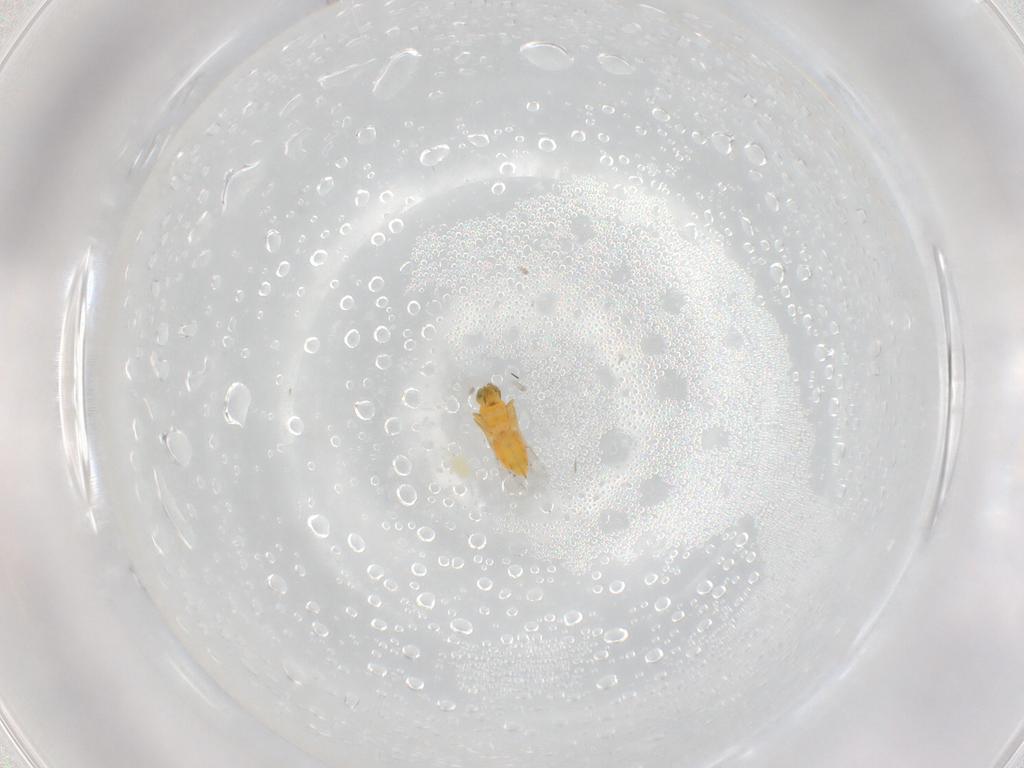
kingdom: Animalia
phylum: Arthropoda
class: Insecta
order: Hymenoptera
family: Aphelinidae
